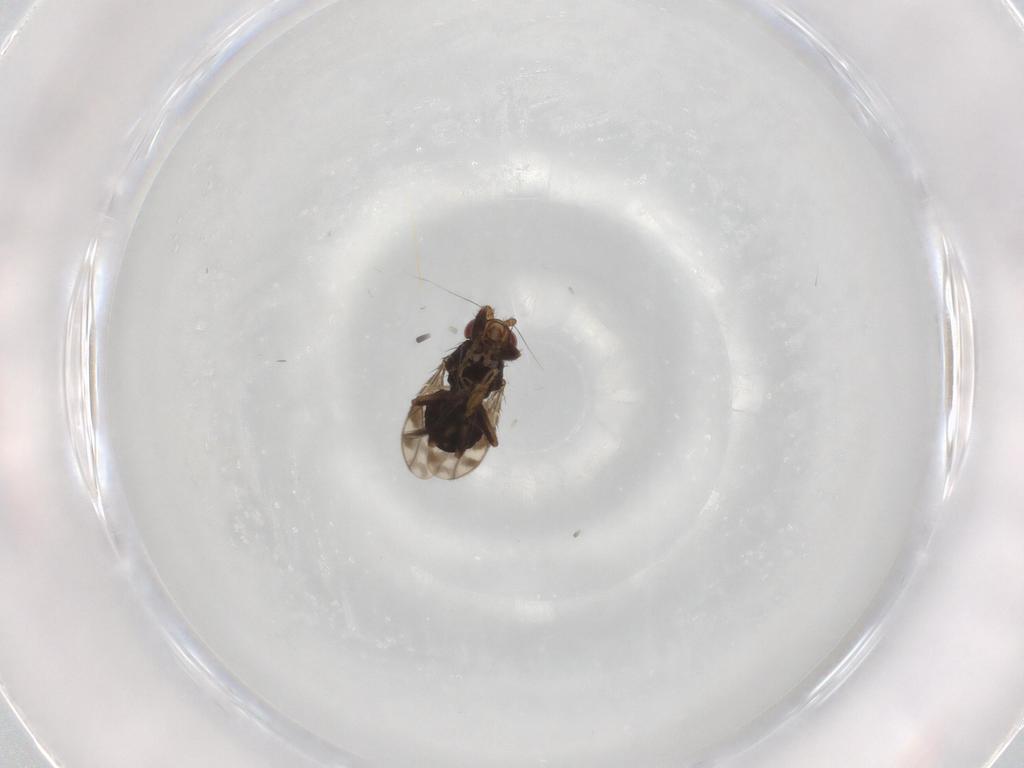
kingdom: Animalia
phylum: Arthropoda
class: Insecta
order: Diptera
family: Sphaeroceridae
